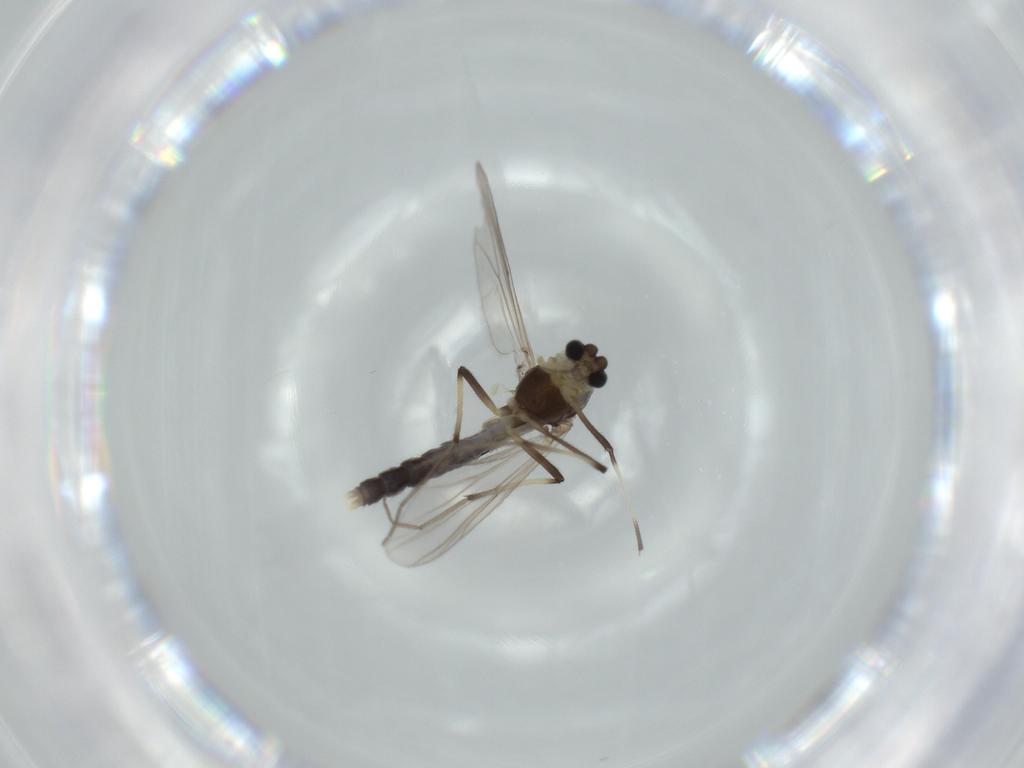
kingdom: Animalia
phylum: Arthropoda
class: Insecta
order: Diptera
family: Chironomidae
